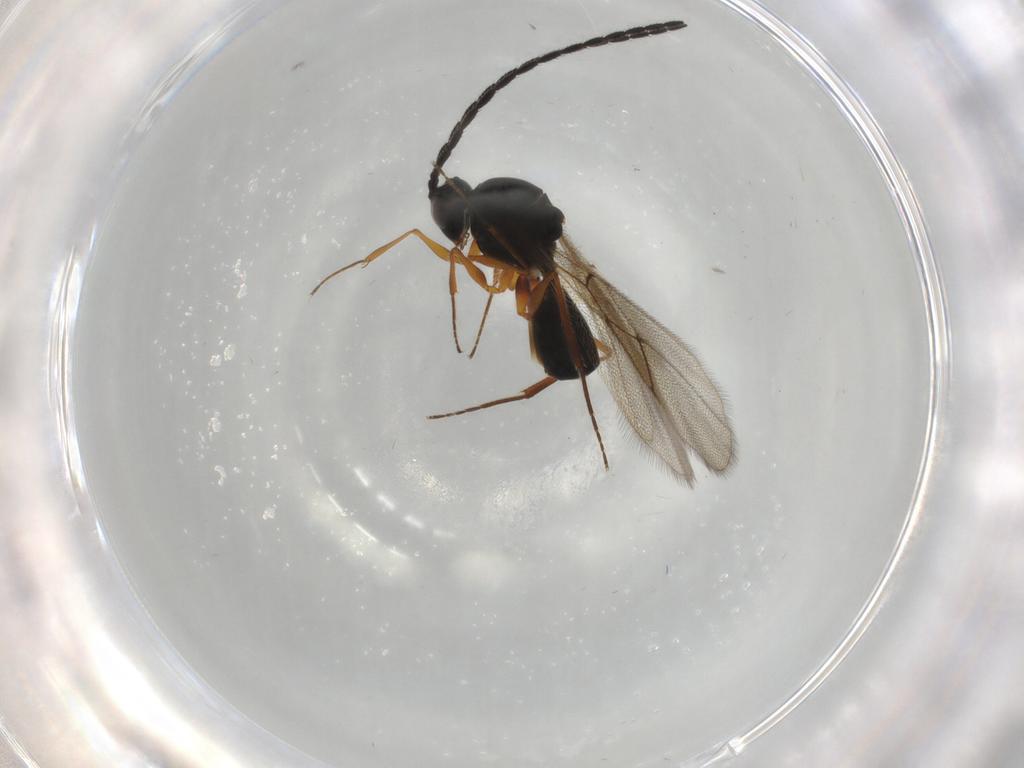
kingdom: Animalia
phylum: Arthropoda
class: Insecta
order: Hymenoptera
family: Figitidae
